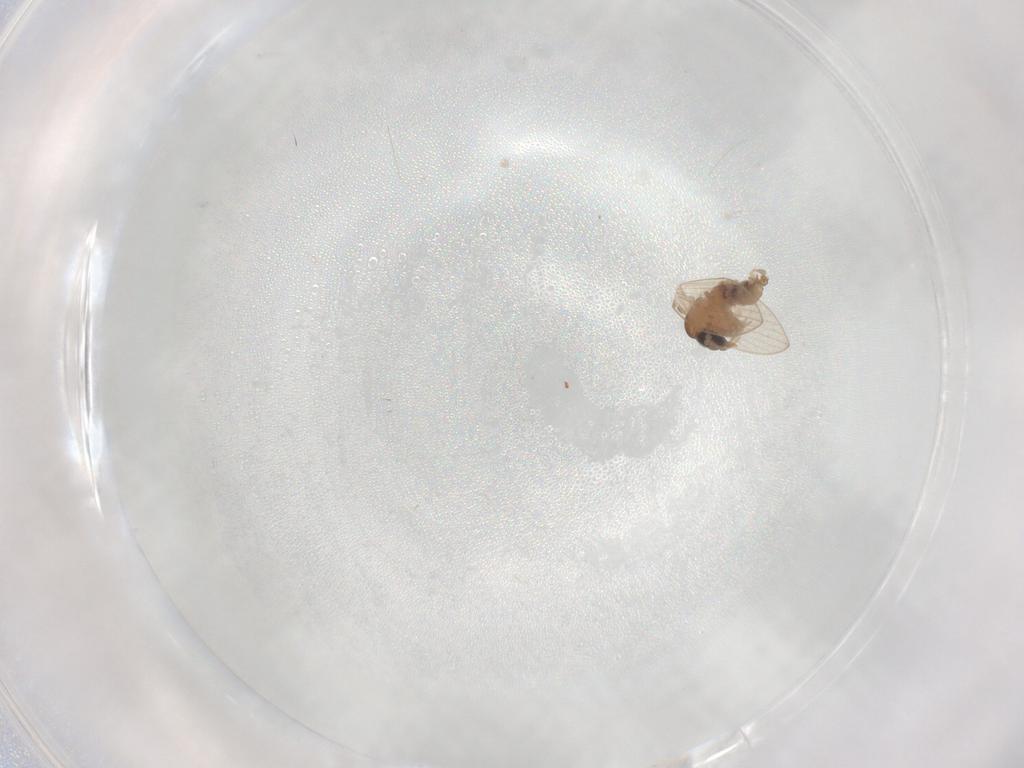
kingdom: Animalia
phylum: Arthropoda
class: Insecta
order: Diptera
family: Psychodidae
